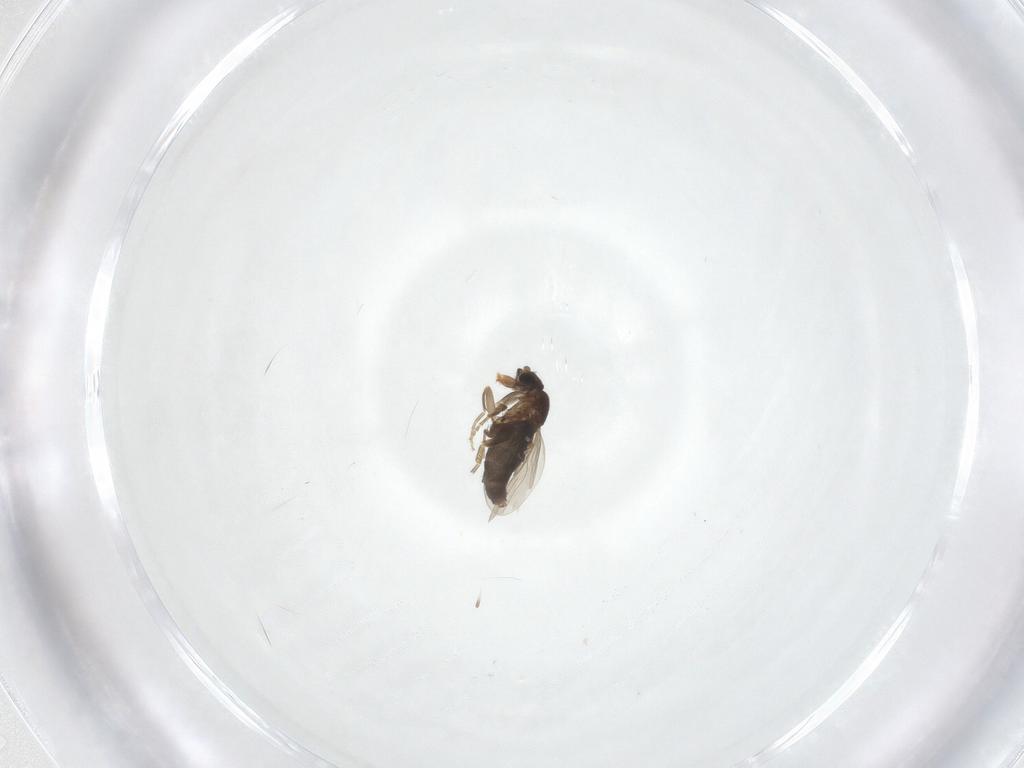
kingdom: Animalia
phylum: Arthropoda
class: Insecta
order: Diptera
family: Phoridae
